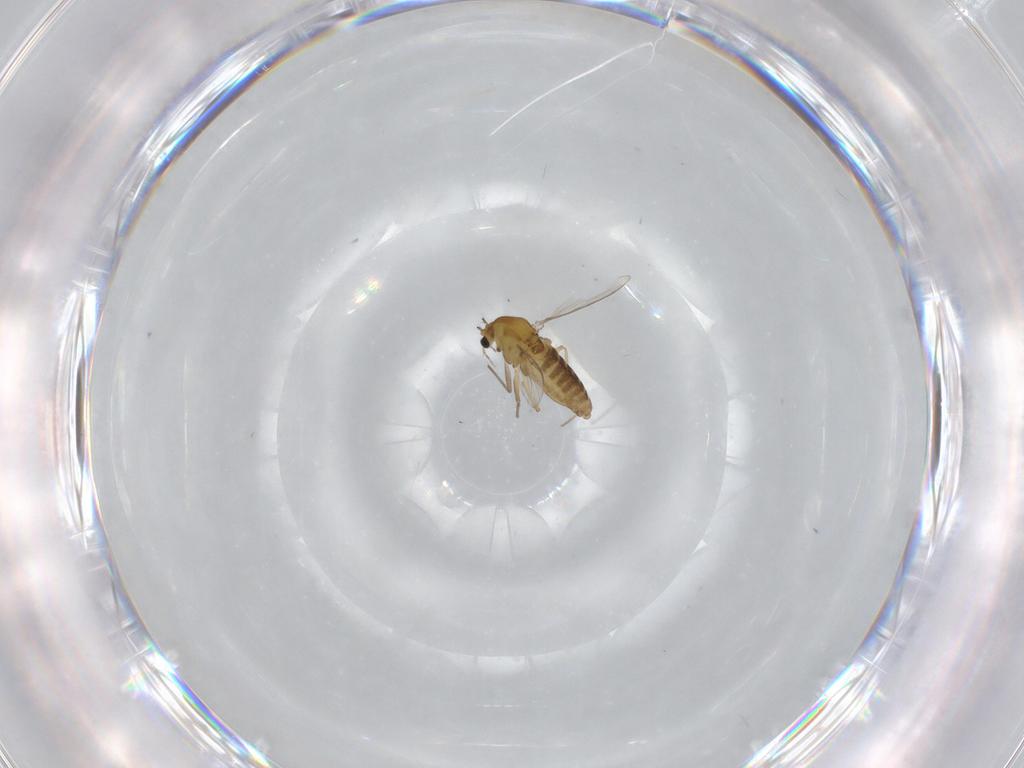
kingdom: Animalia
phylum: Arthropoda
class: Insecta
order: Diptera
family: Chironomidae
